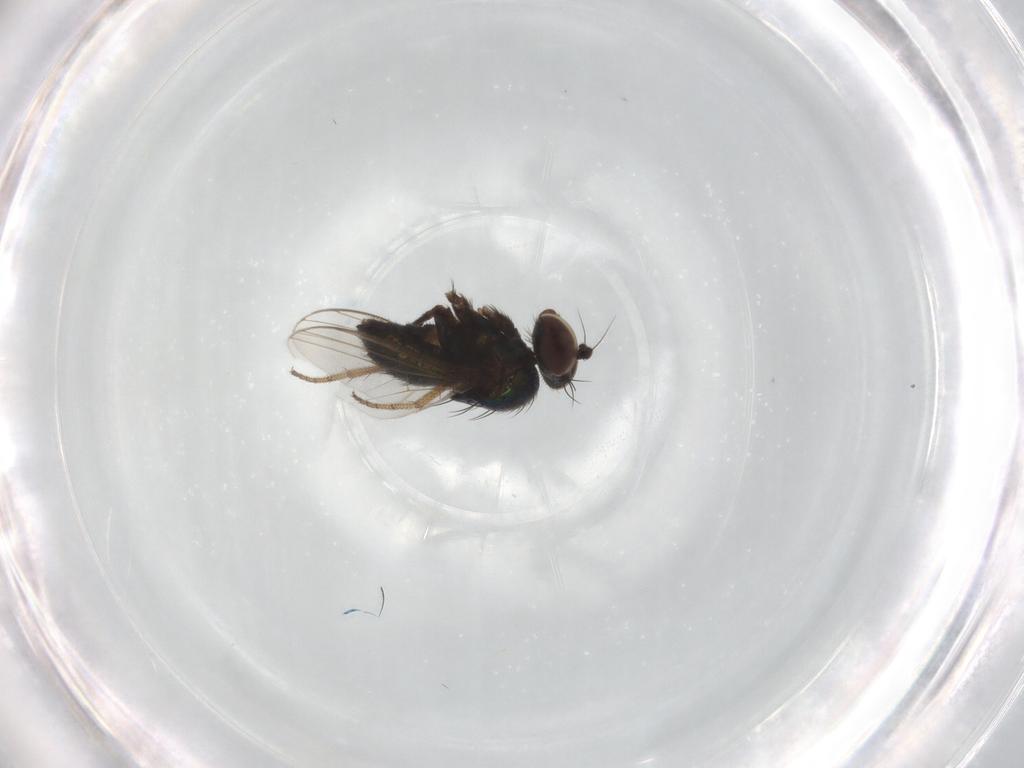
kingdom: Animalia
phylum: Arthropoda
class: Insecta
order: Diptera
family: Dolichopodidae
